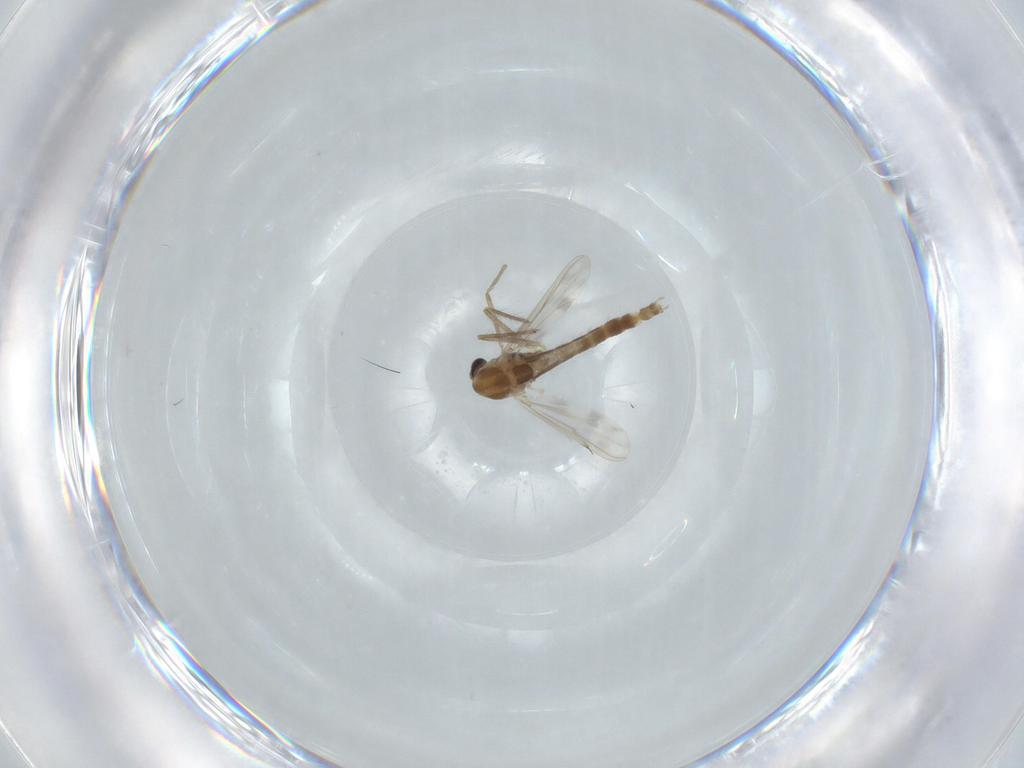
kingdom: Animalia
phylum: Arthropoda
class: Insecta
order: Diptera
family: Chironomidae
